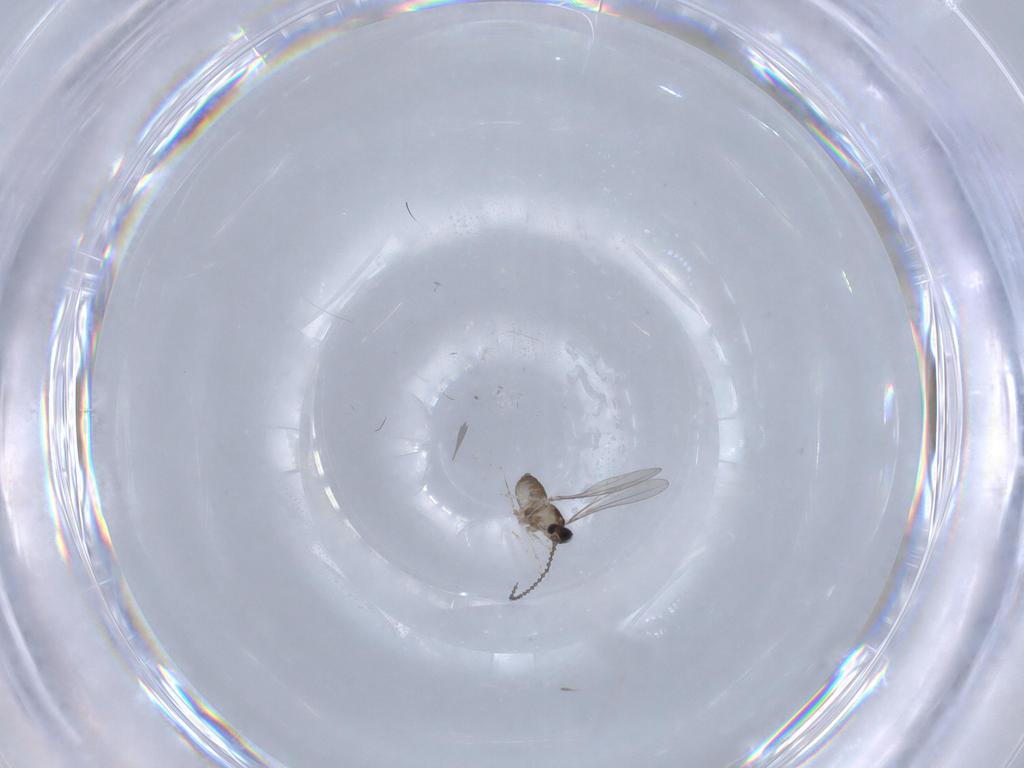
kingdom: Animalia
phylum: Arthropoda
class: Insecta
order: Diptera
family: Cecidomyiidae
